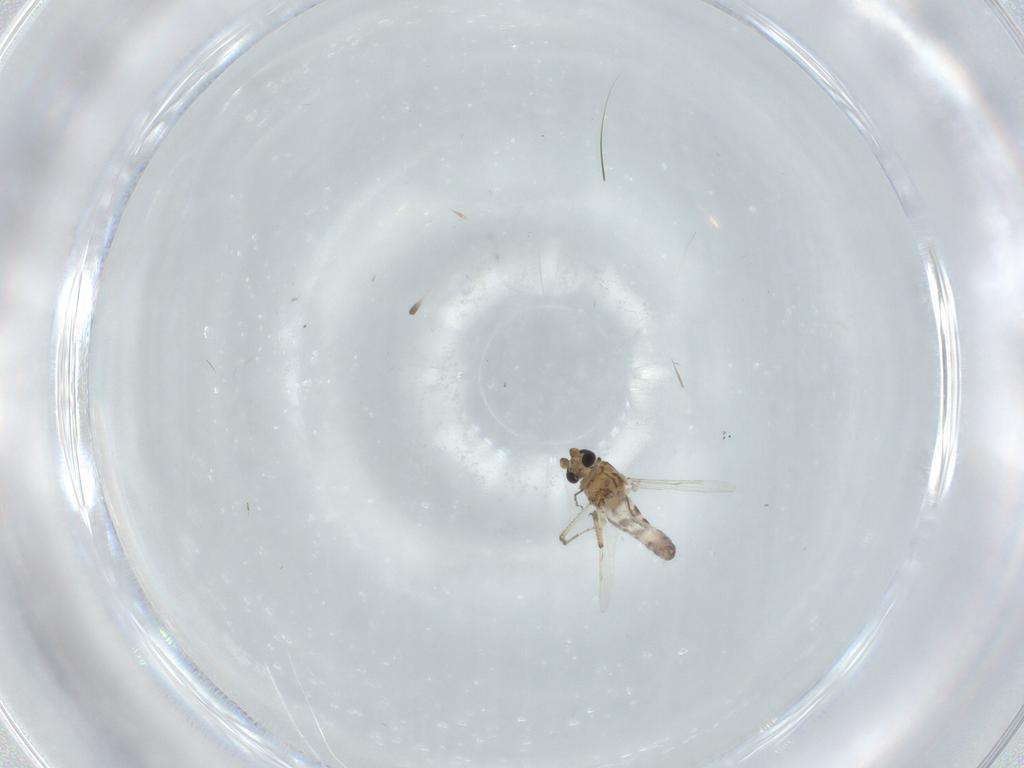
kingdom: Animalia
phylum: Arthropoda
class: Insecta
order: Diptera
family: Ceratopogonidae
